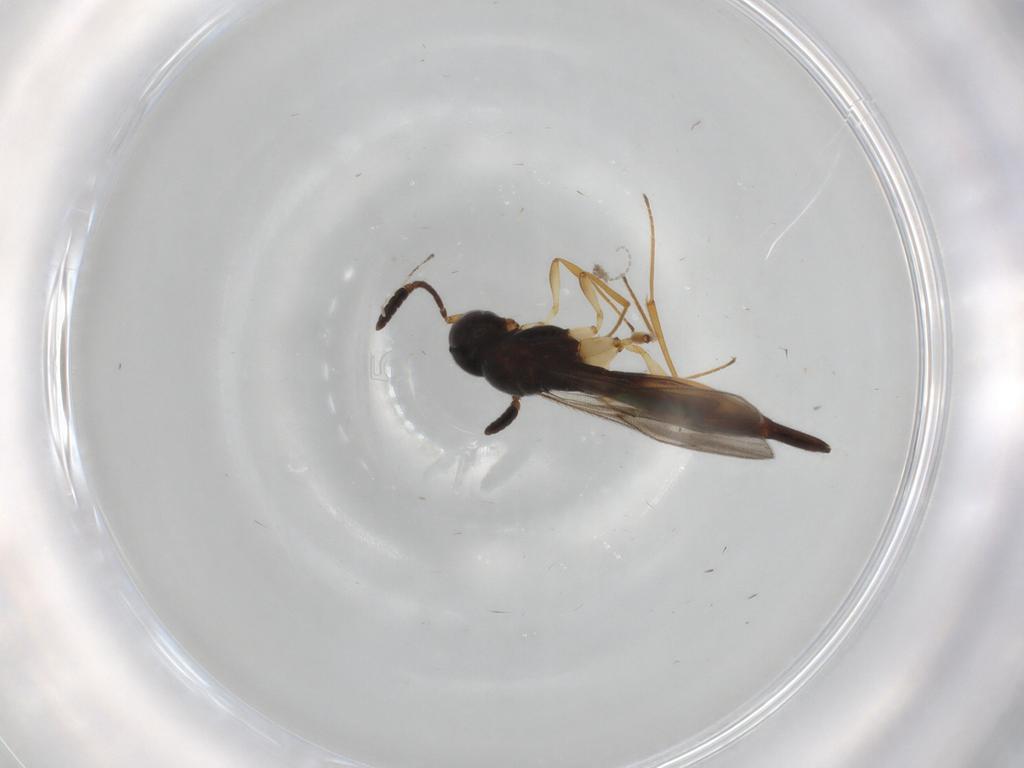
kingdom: Animalia
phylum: Arthropoda
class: Insecta
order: Hymenoptera
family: Scelionidae
